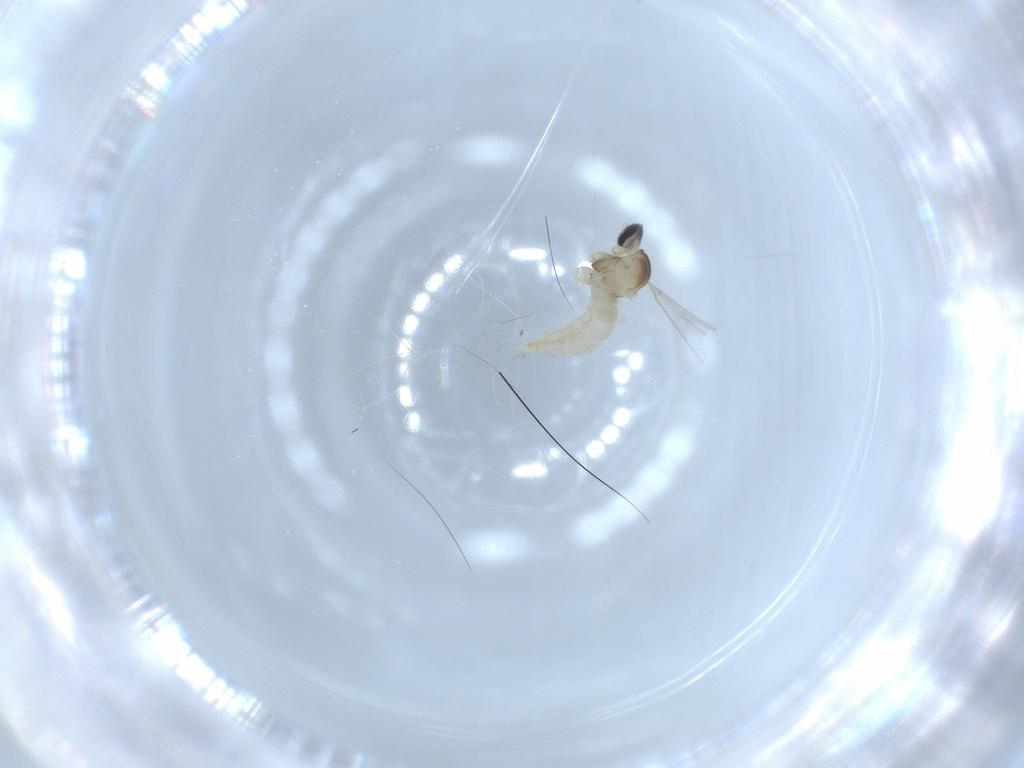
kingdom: Animalia
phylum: Arthropoda
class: Insecta
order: Diptera
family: Cecidomyiidae
